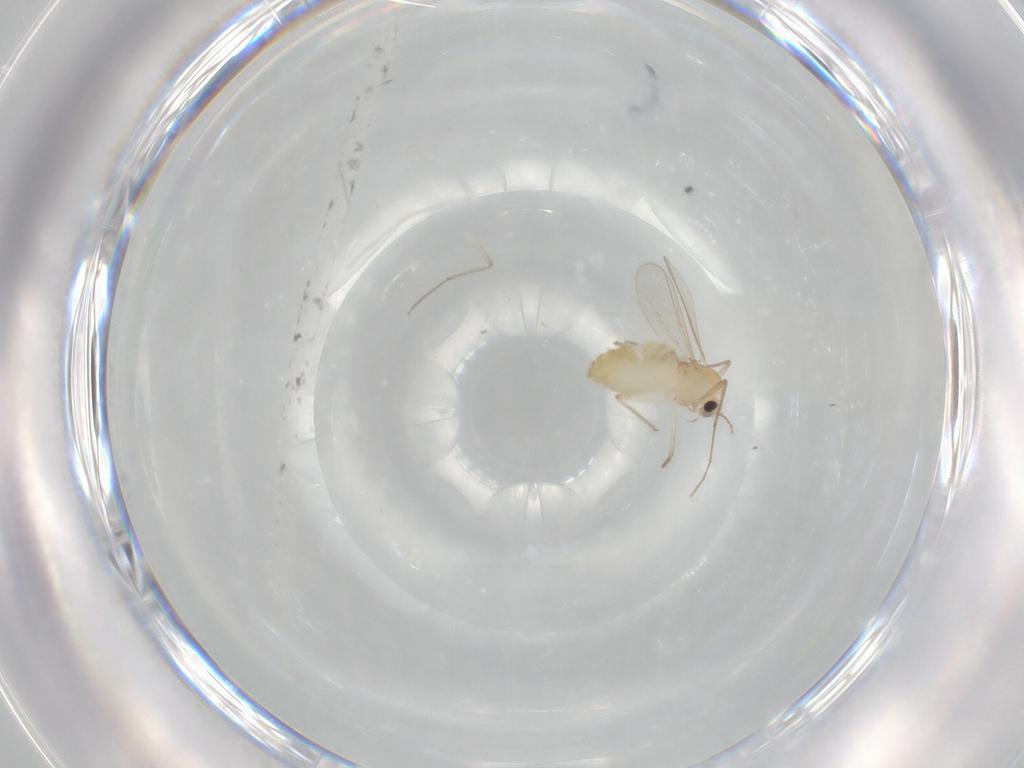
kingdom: Animalia
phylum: Arthropoda
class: Insecta
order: Diptera
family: Chironomidae
